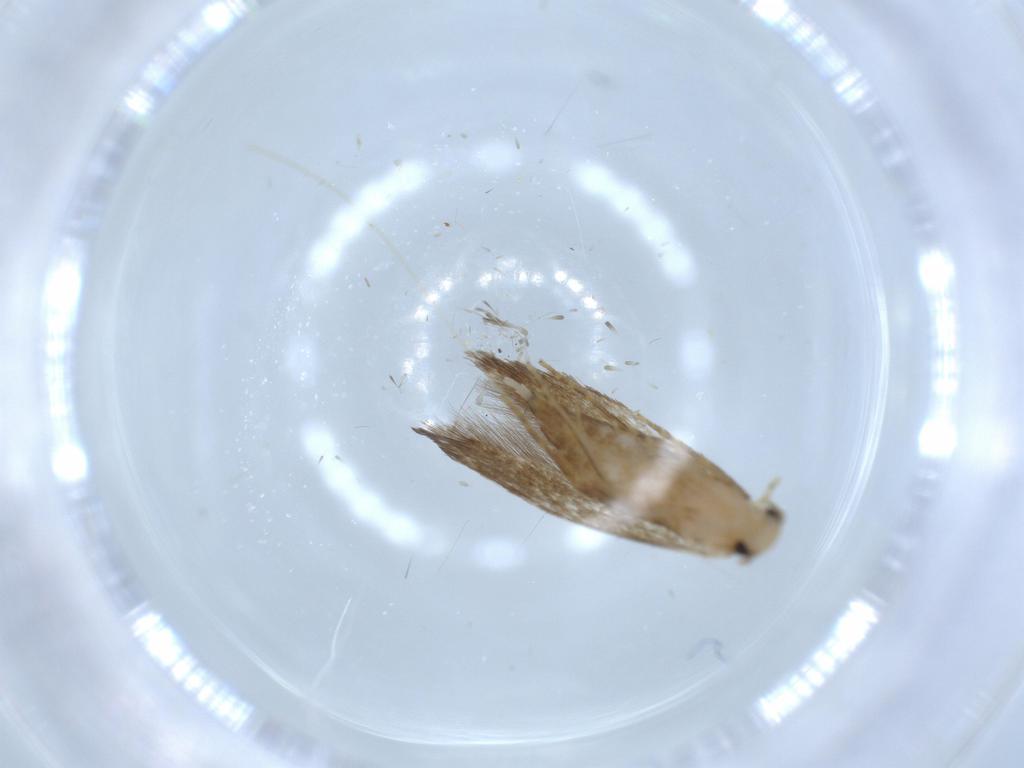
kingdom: Animalia
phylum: Arthropoda
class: Insecta
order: Lepidoptera
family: Tineidae
